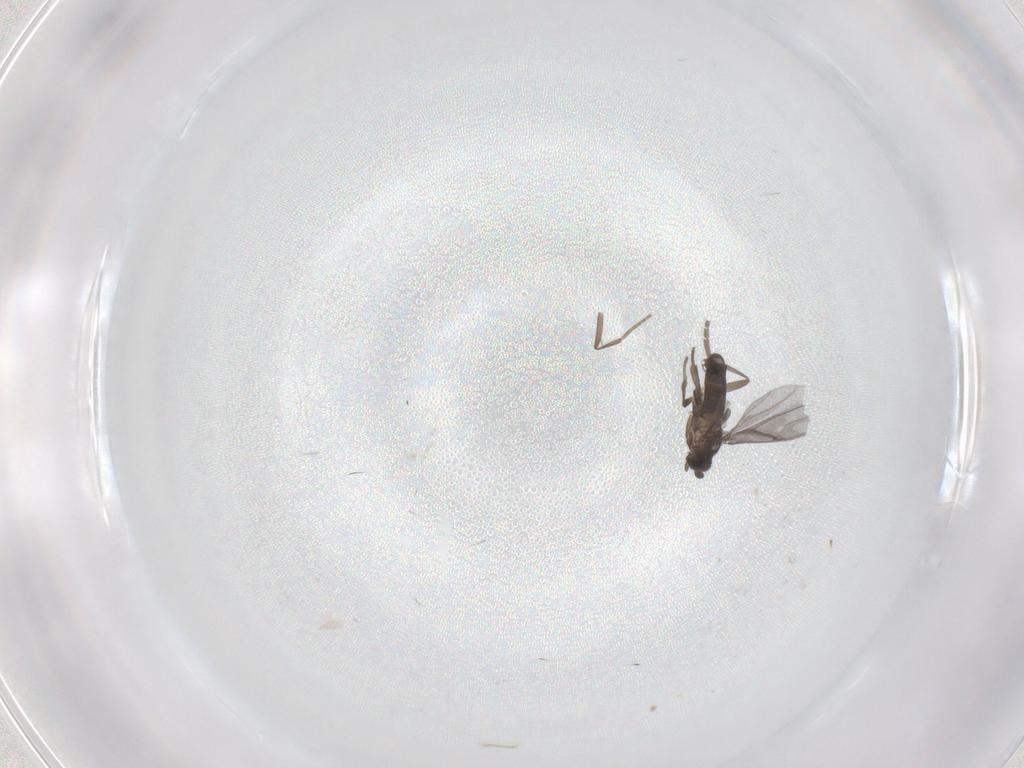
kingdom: Animalia
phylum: Arthropoda
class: Insecta
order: Diptera
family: Phoridae
